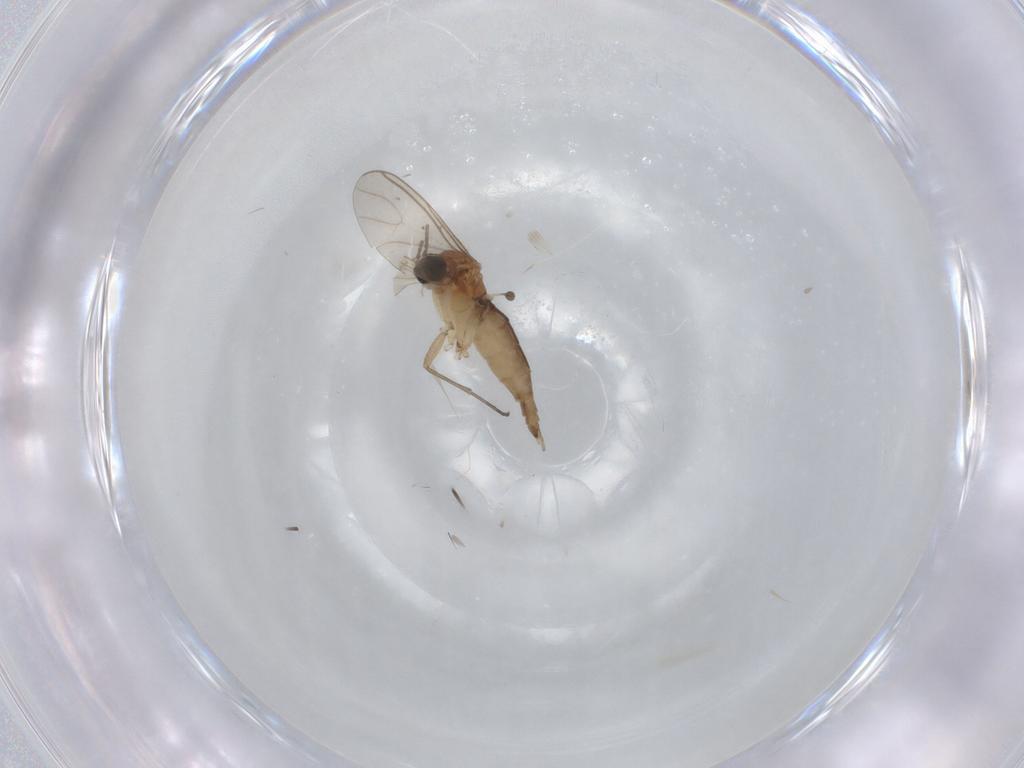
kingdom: Animalia
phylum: Arthropoda
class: Insecta
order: Diptera
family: Sciaridae
